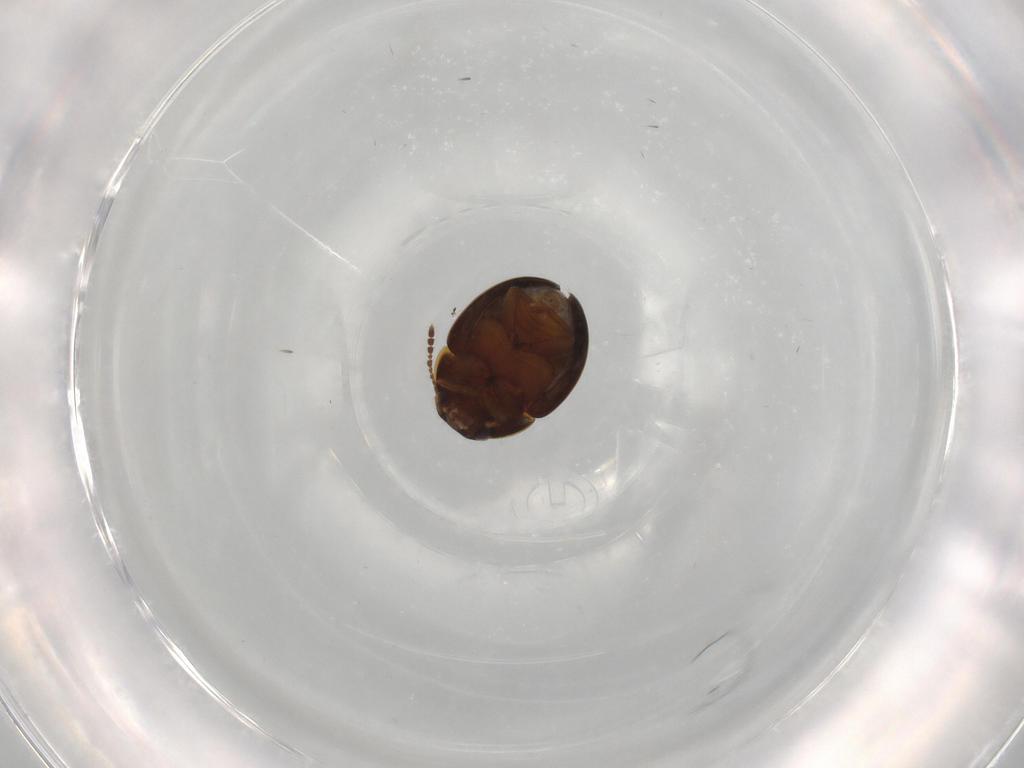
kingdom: Animalia
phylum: Arthropoda
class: Insecta
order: Coleoptera
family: Leiodidae
